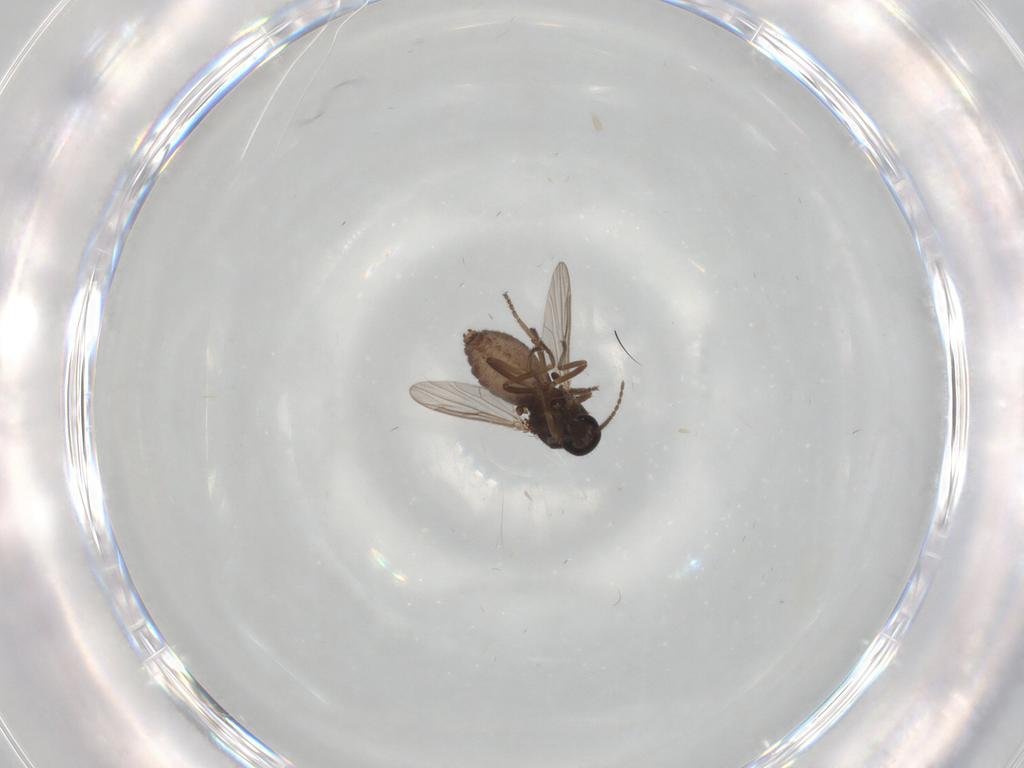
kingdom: Animalia
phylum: Arthropoda
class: Insecta
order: Diptera
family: Ceratopogonidae
